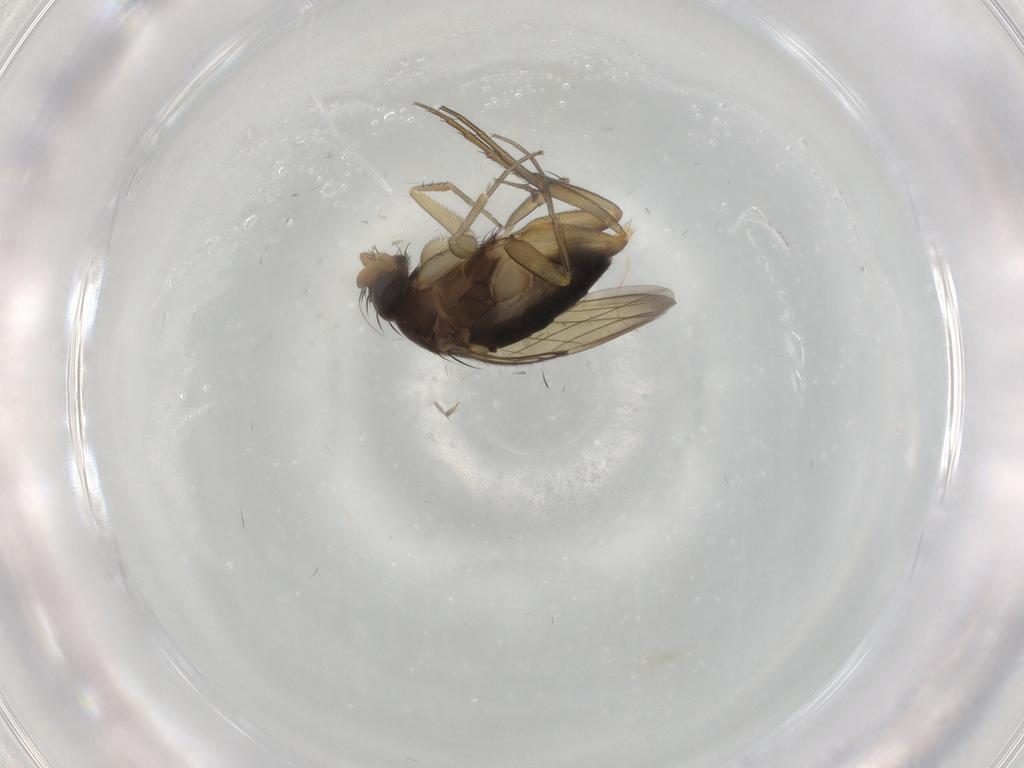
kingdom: Animalia
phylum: Arthropoda
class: Insecta
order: Diptera
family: Phoridae
